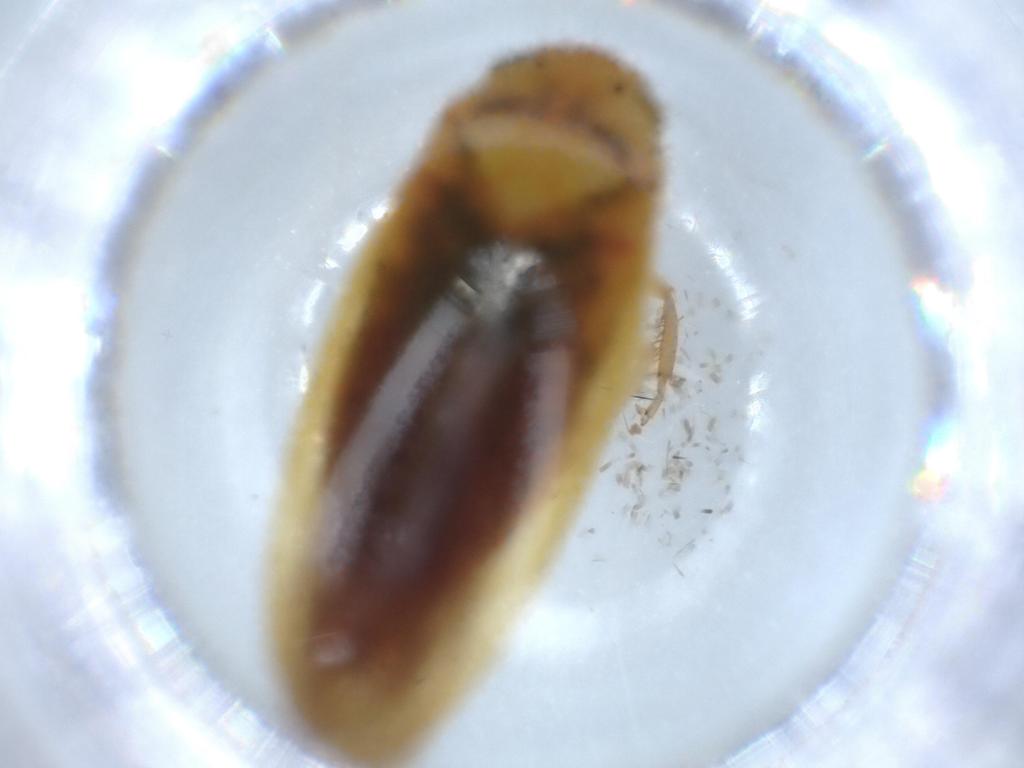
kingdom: Animalia
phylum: Arthropoda
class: Insecta
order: Hemiptera
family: Cicadellidae
